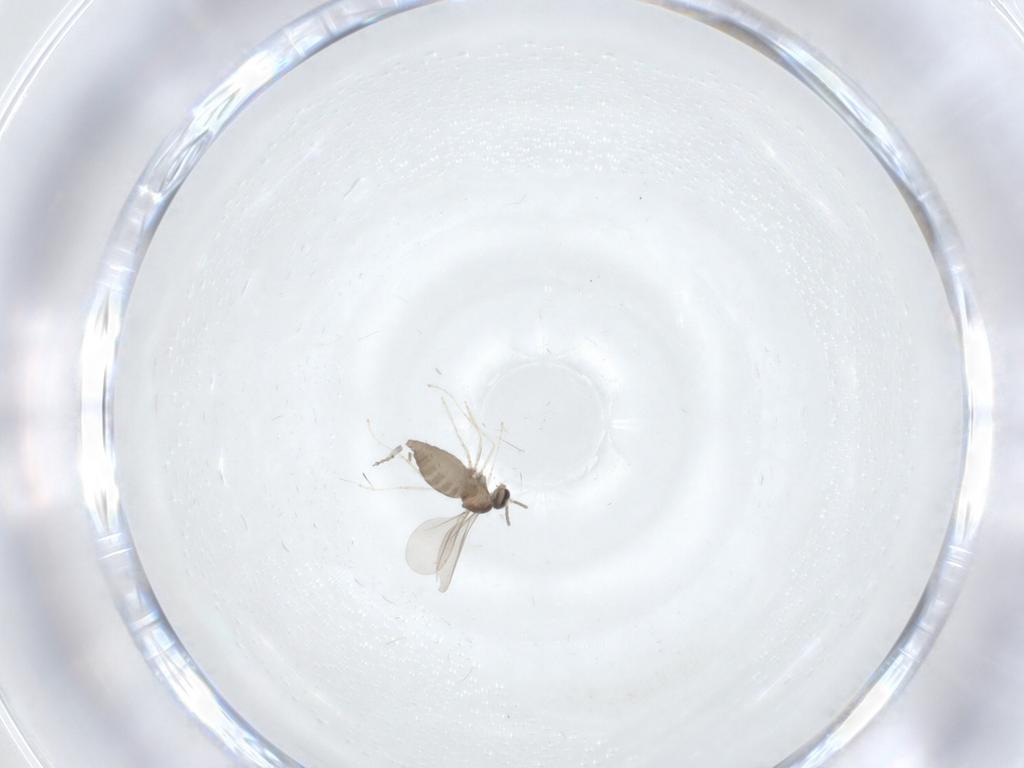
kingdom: Animalia
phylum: Arthropoda
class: Insecta
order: Diptera
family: Cecidomyiidae
